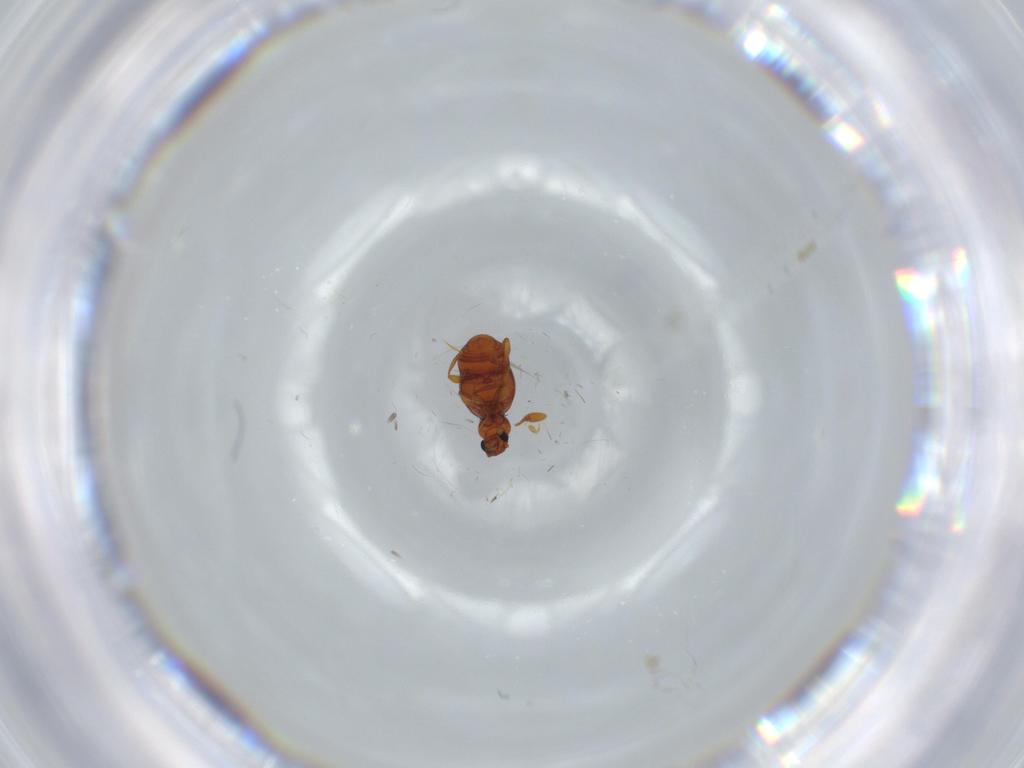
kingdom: Animalia
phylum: Arthropoda
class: Insecta
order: Coleoptera
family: Staphylinidae
